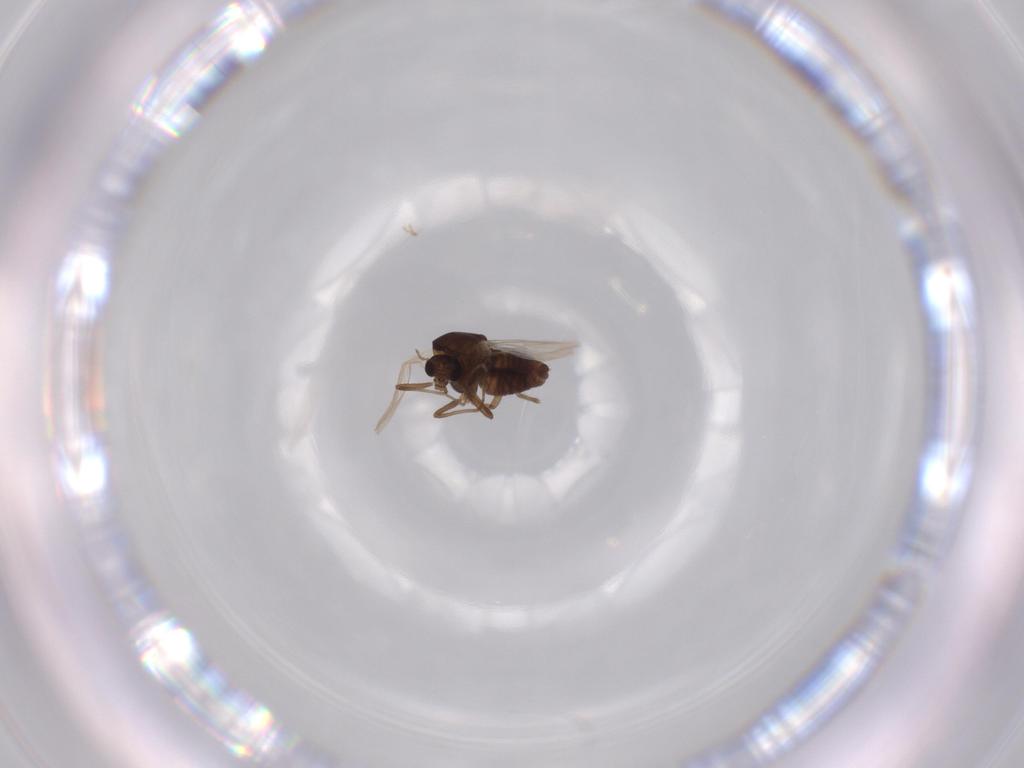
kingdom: Animalia
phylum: Arthropoda
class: Insecta
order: Diptera
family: Chironomidae
